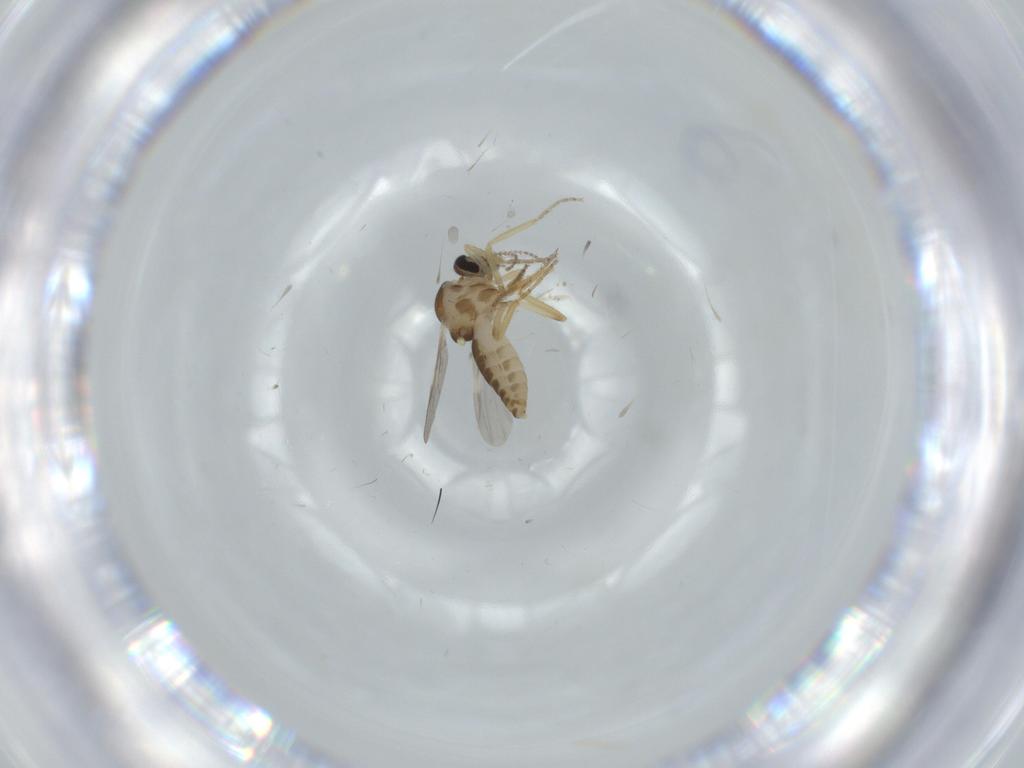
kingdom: Animalia
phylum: Arthropoda
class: Insecta
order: Diptera
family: Ceratopogonidae
